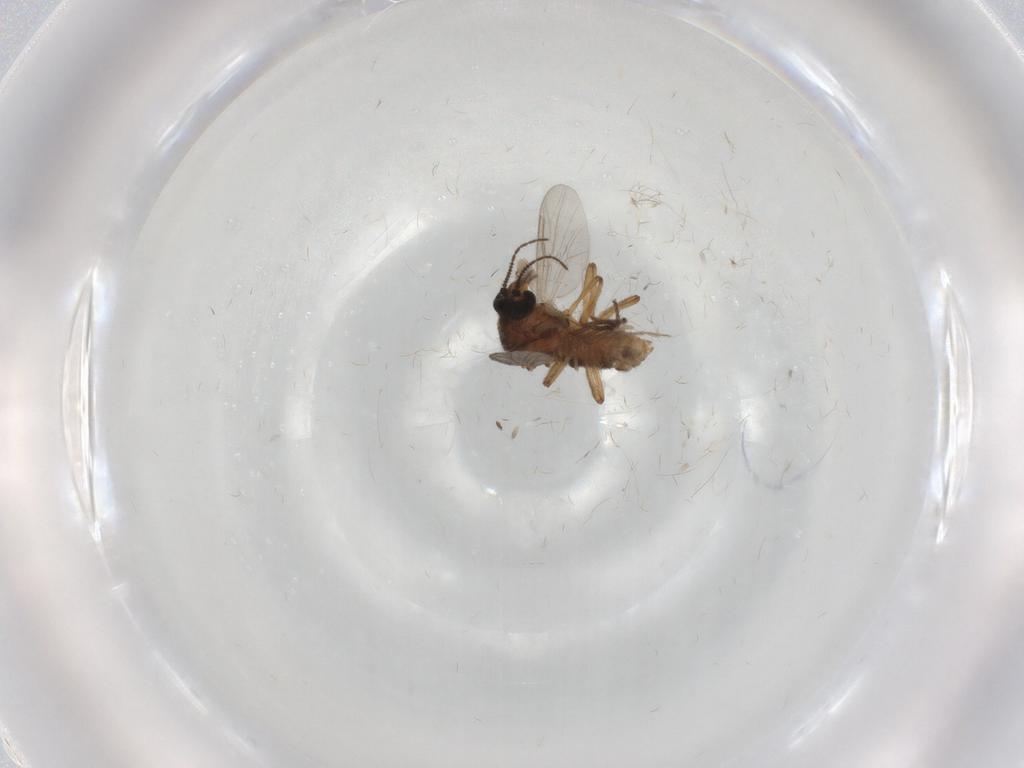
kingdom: Animalia
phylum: Arthropoda
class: Insecta
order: Diptera
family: Ceratopogonidae
